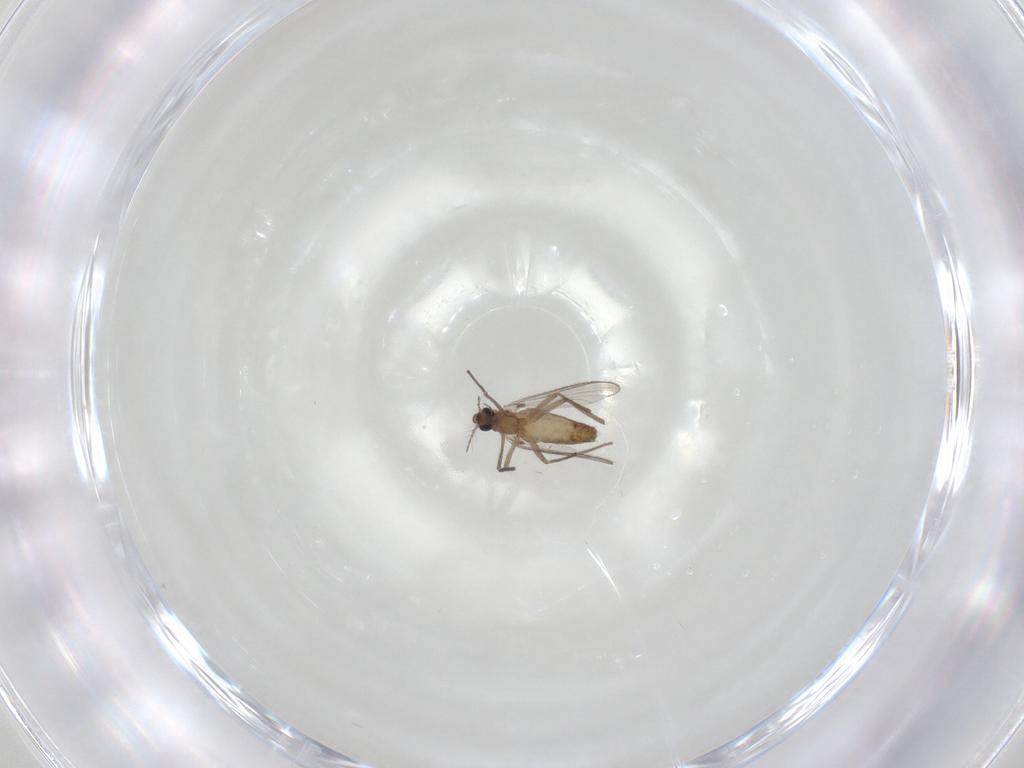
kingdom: Animalia
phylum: Arthropoda
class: Insecta
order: Diptera
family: Chironomidae
